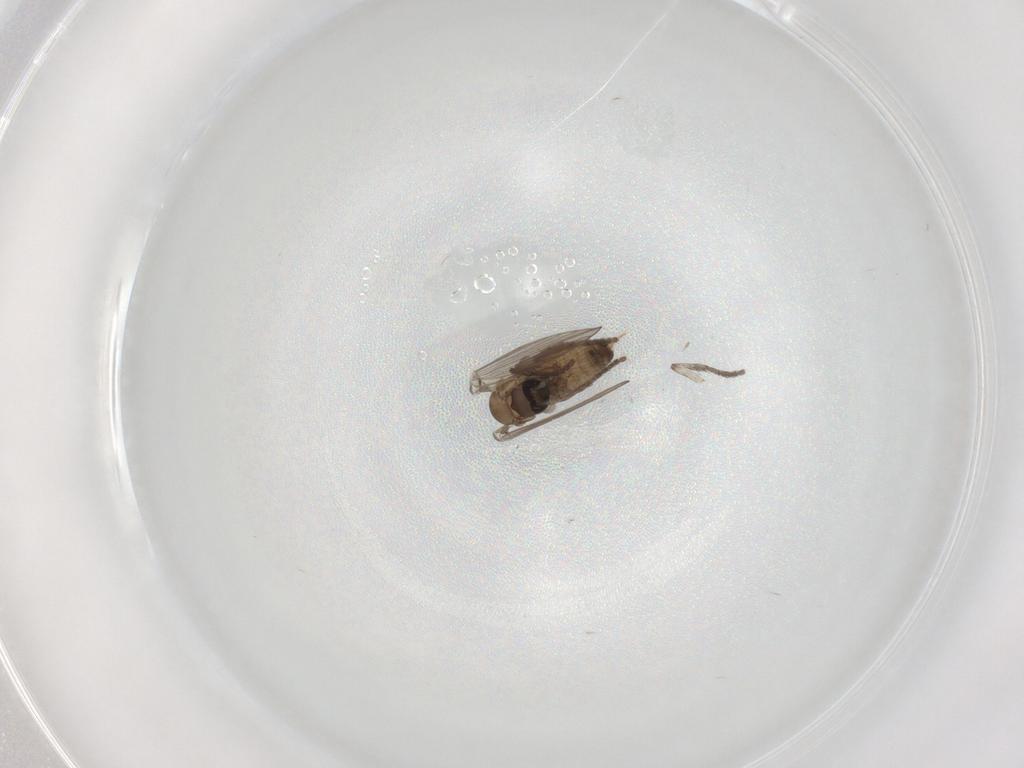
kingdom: Animalia
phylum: Arthropoda
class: Insecta
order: Diptera
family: Psychodidae
